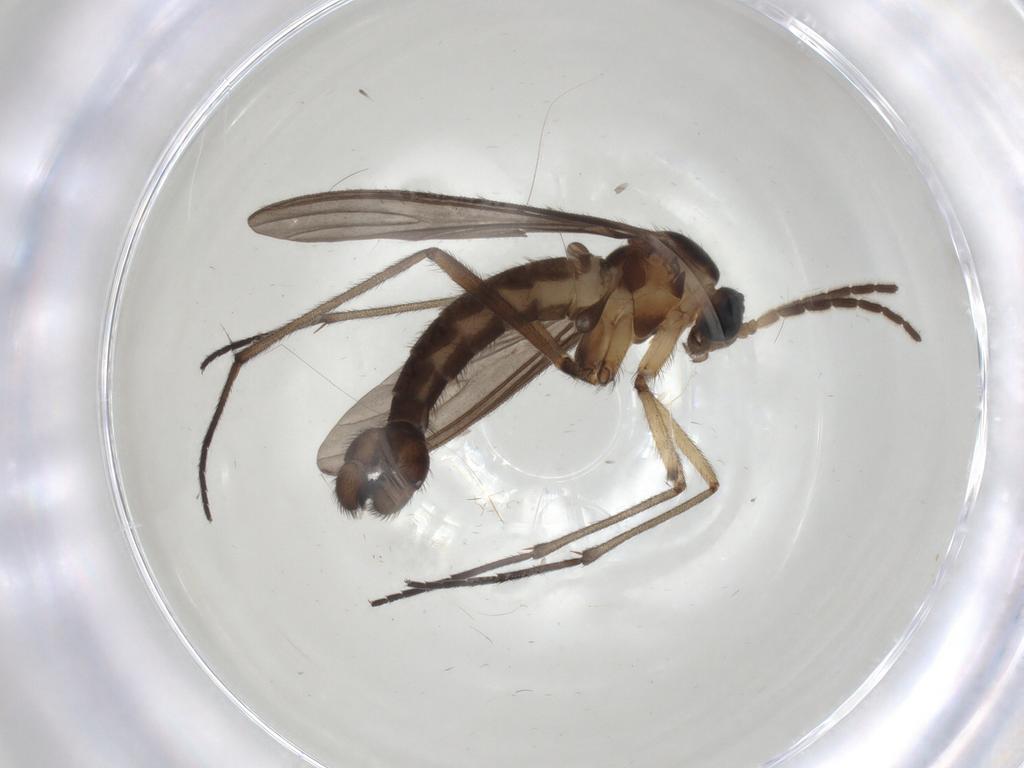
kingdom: Animalia
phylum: Arthropoda
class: Insecta
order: Diptera
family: Sciaridae
